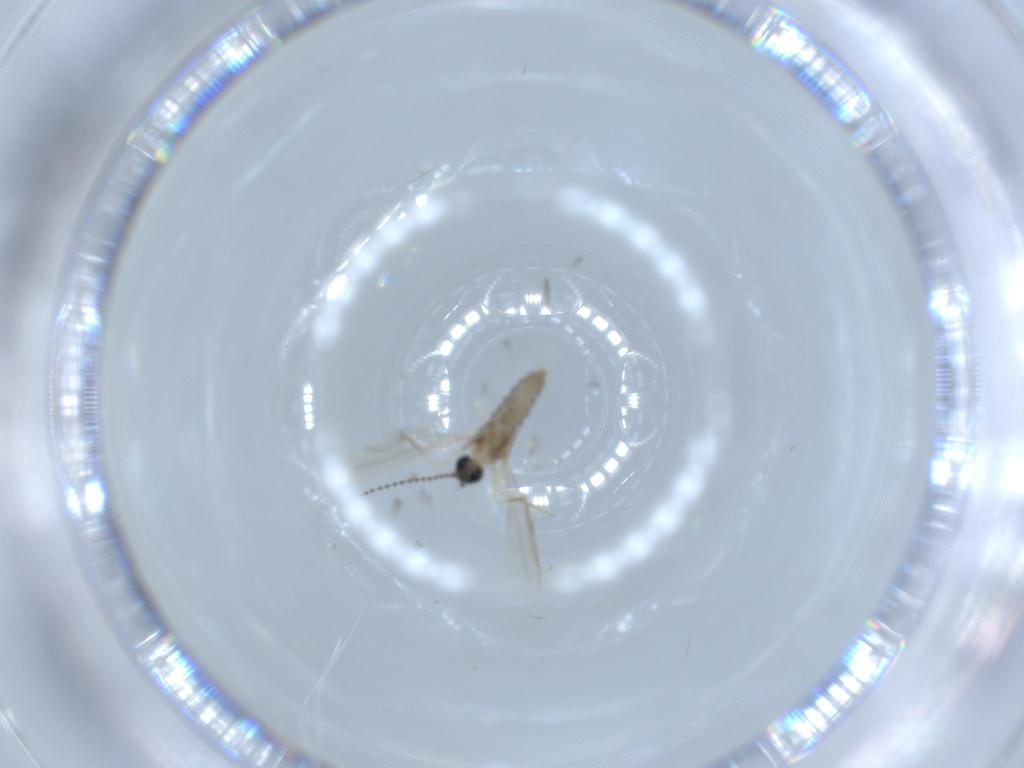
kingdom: Animalia
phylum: Arthropoda
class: Insecta
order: Diptera
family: Cecidomyiidae
